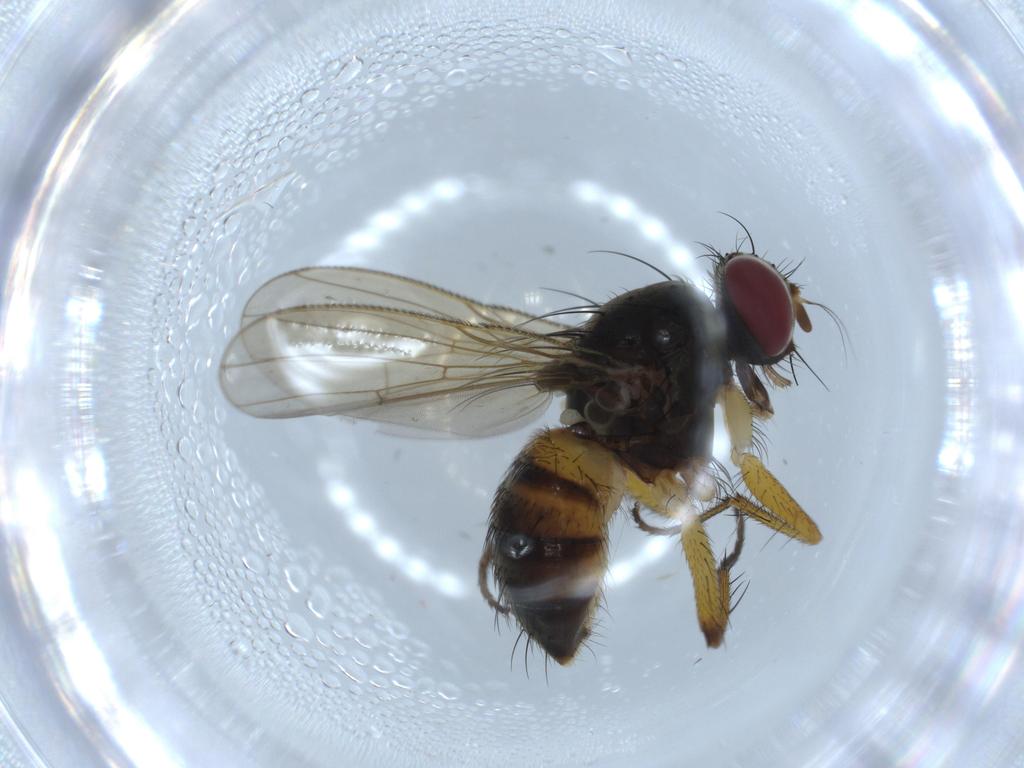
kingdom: Animalia
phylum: Arthropoda
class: Insecta
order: Diptera
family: Muscidae
